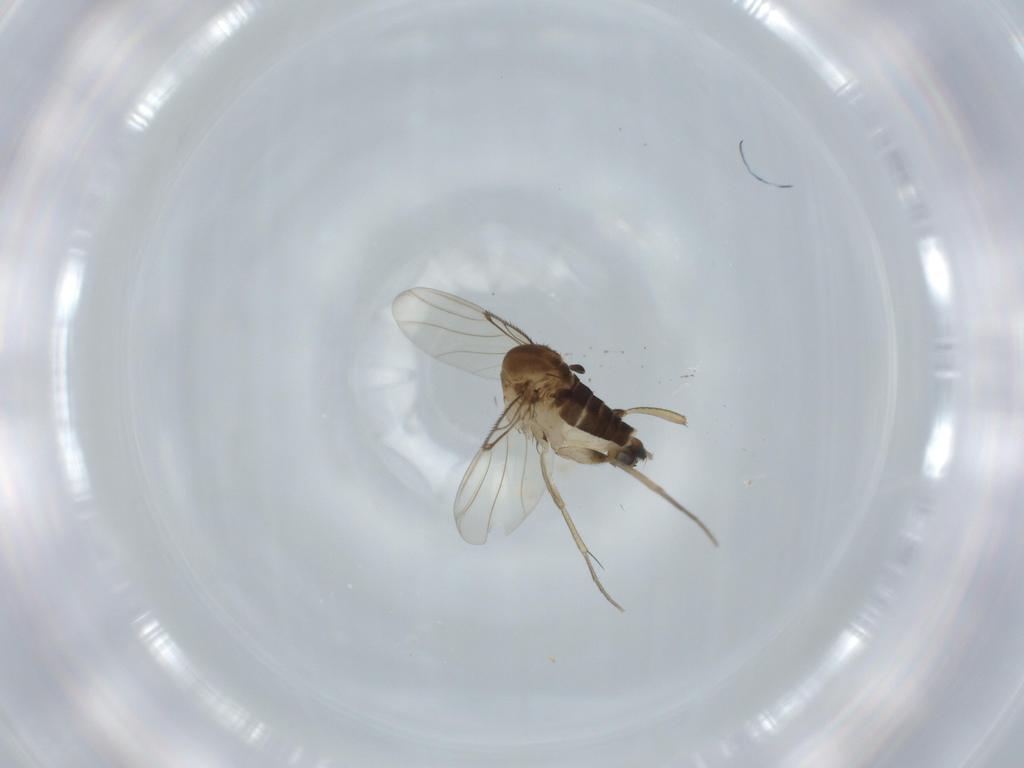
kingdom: Animalia
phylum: Arthropoda
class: Insecta
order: Diptera
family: Phoridae
